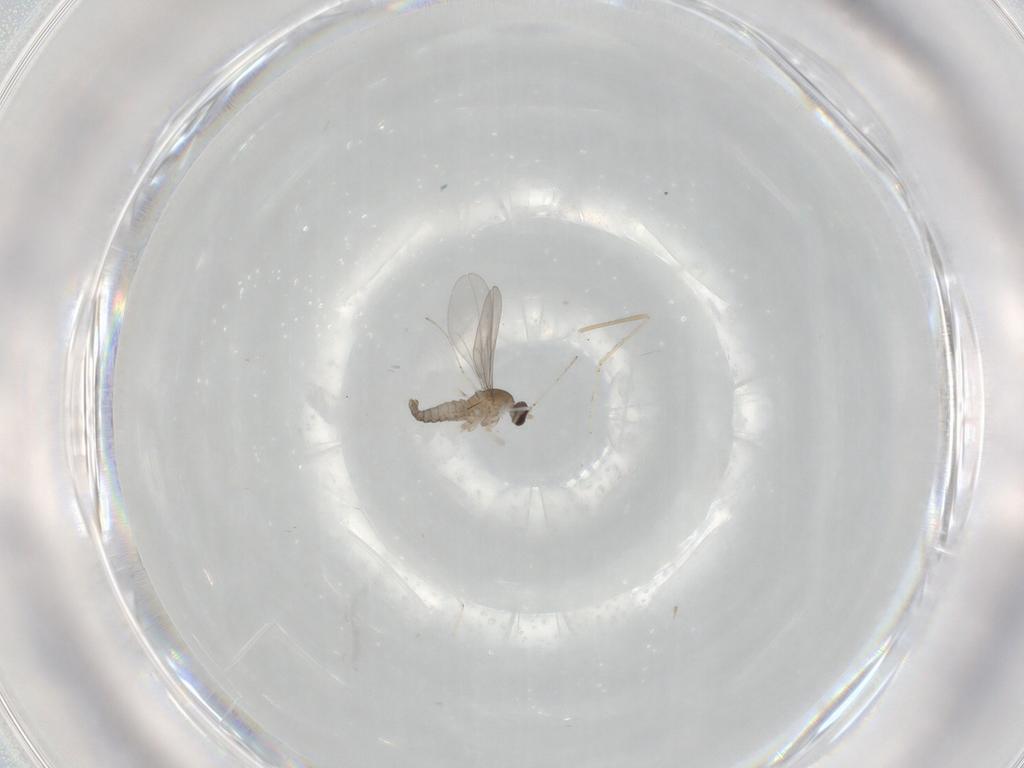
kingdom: Animalia
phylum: Arthropoda
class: Insecta
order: Diptera
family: Cecidomyiidae
